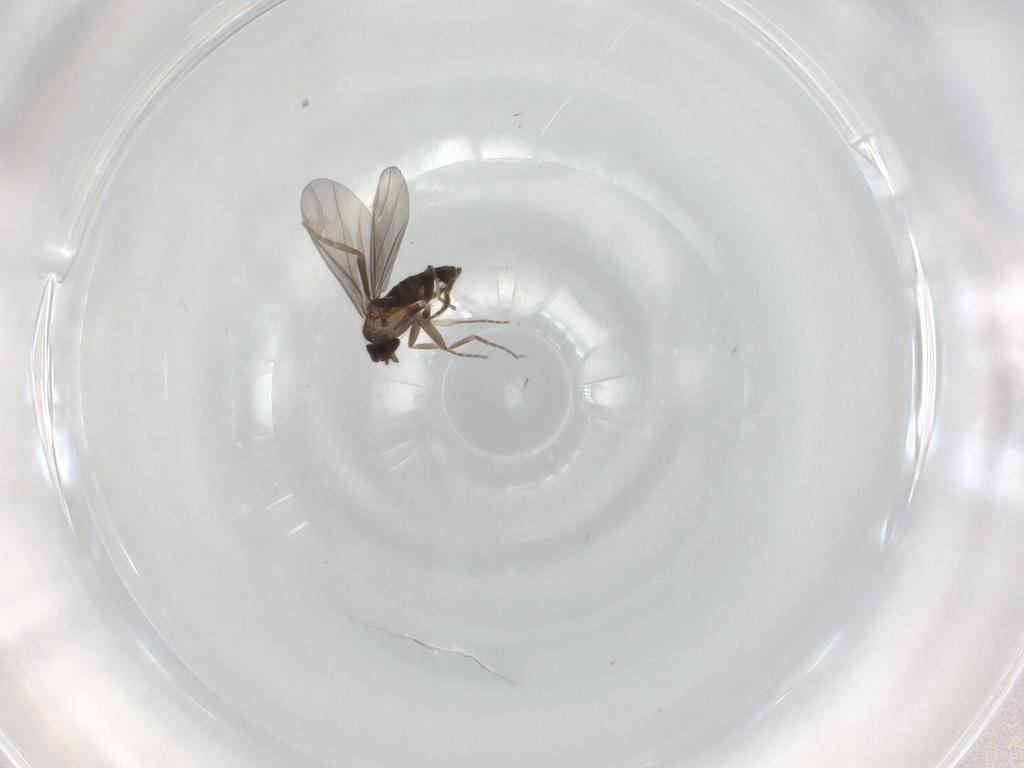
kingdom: Animalia
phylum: Arthropoda
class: Insecta
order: Diptera
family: Phoridae
